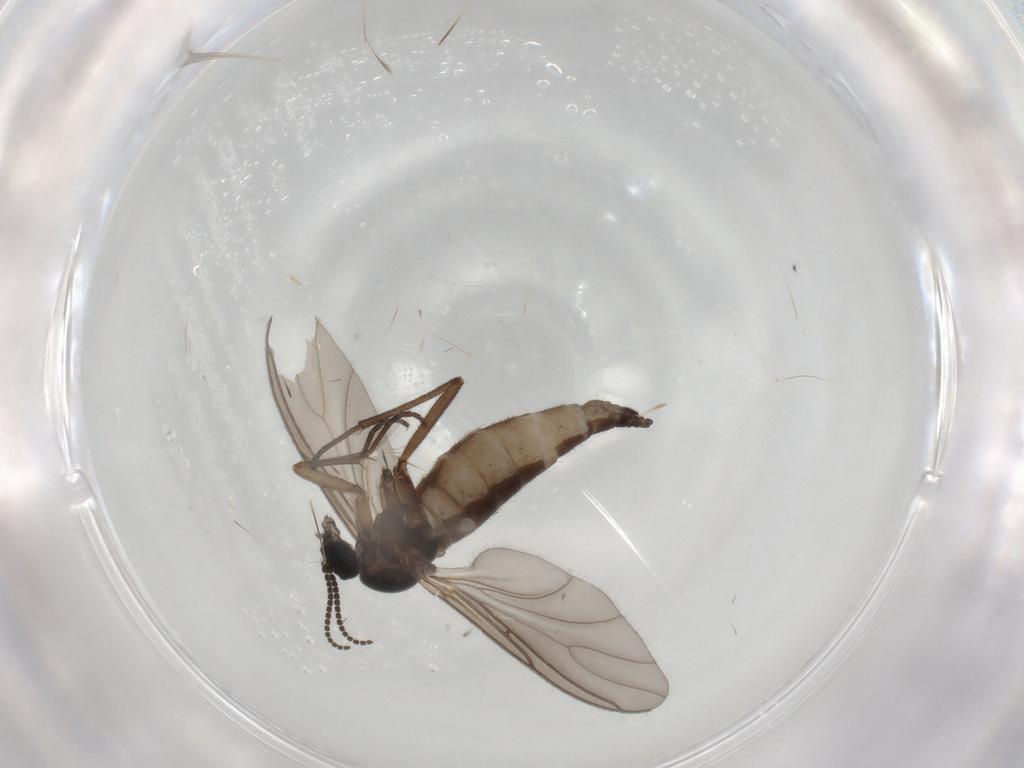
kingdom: Animalia
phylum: Arthropoda
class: Insecta
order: Diptera
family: Sciaridae
